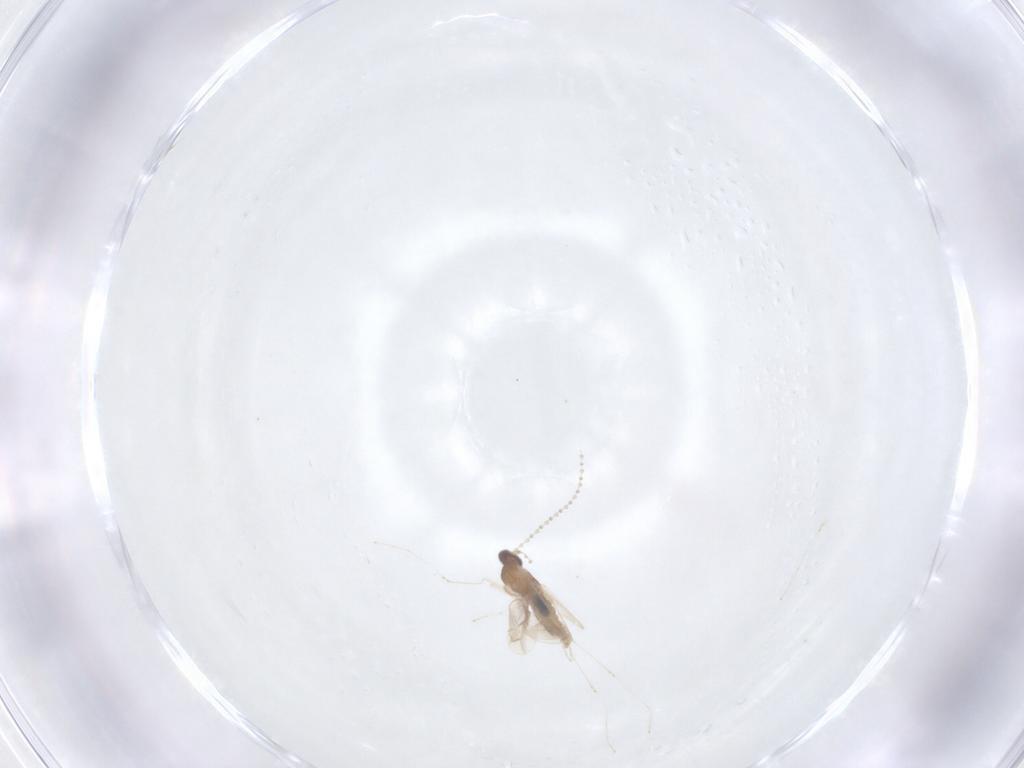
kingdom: Animalia
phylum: Arthropoda
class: Insecta
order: Diptera
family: Cecidomyiidae
